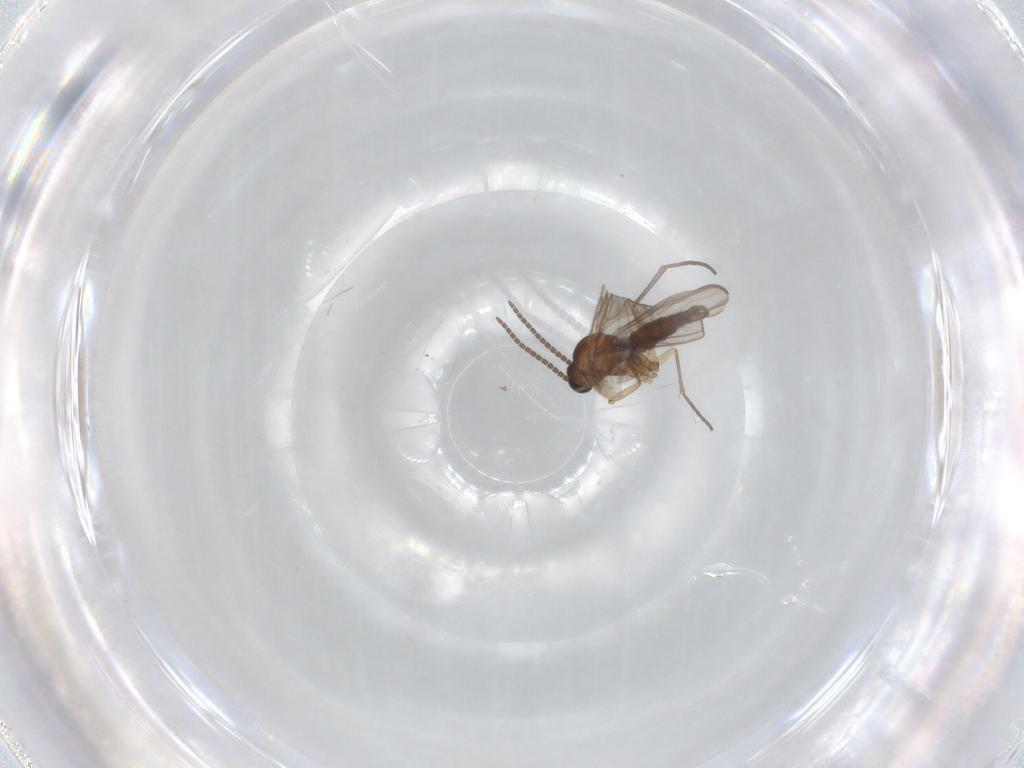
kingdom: Animalia
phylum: Arthropoda
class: Insecta
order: Diptera
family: Sciaridae
